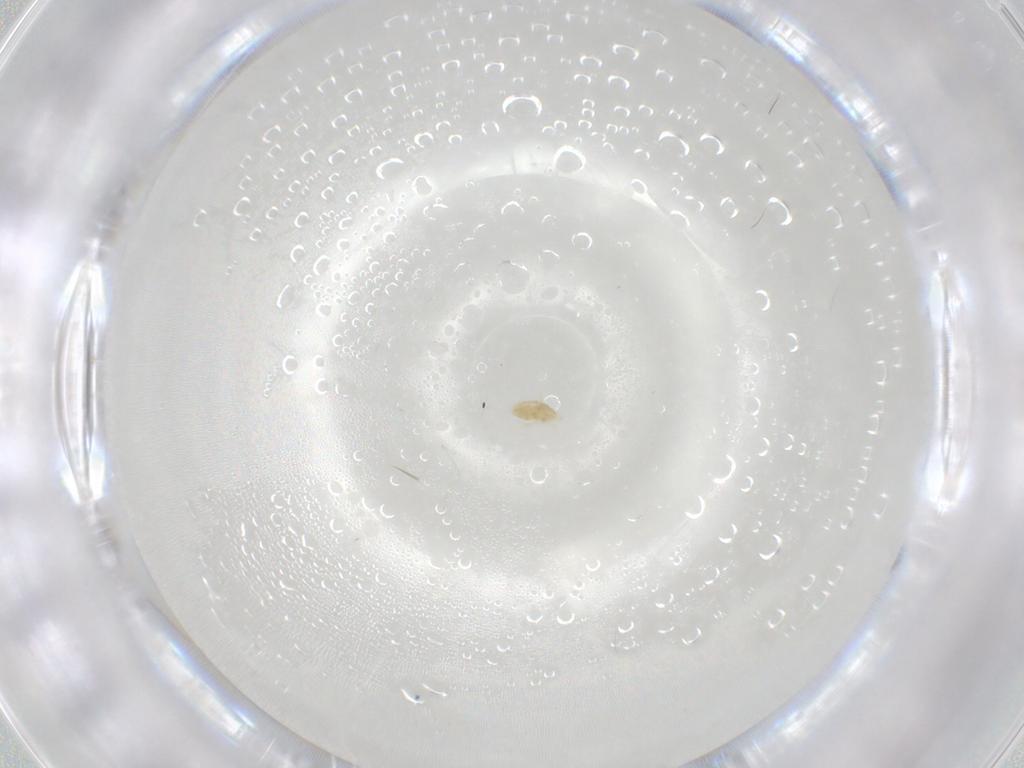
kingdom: Animalia
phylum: Arthropoda
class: Arachnida
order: Trombidiformes
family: Eupodidae
